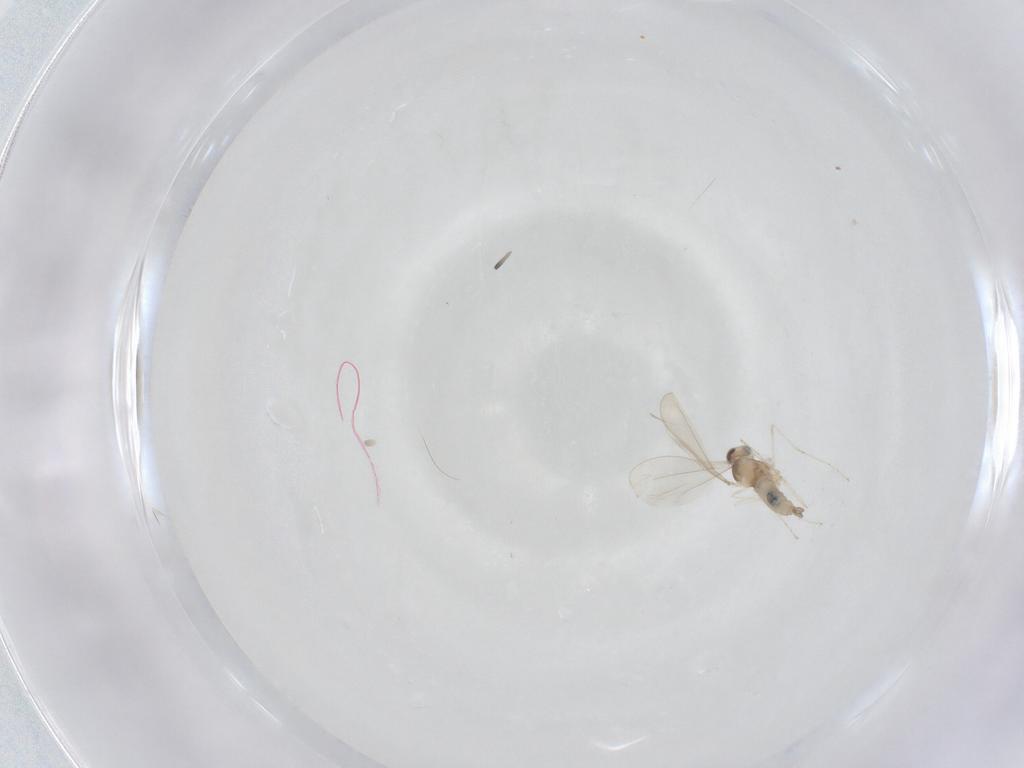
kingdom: Animalia
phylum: Arthropoda
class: Insecta
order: Diptera
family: Cecidomyiidae
